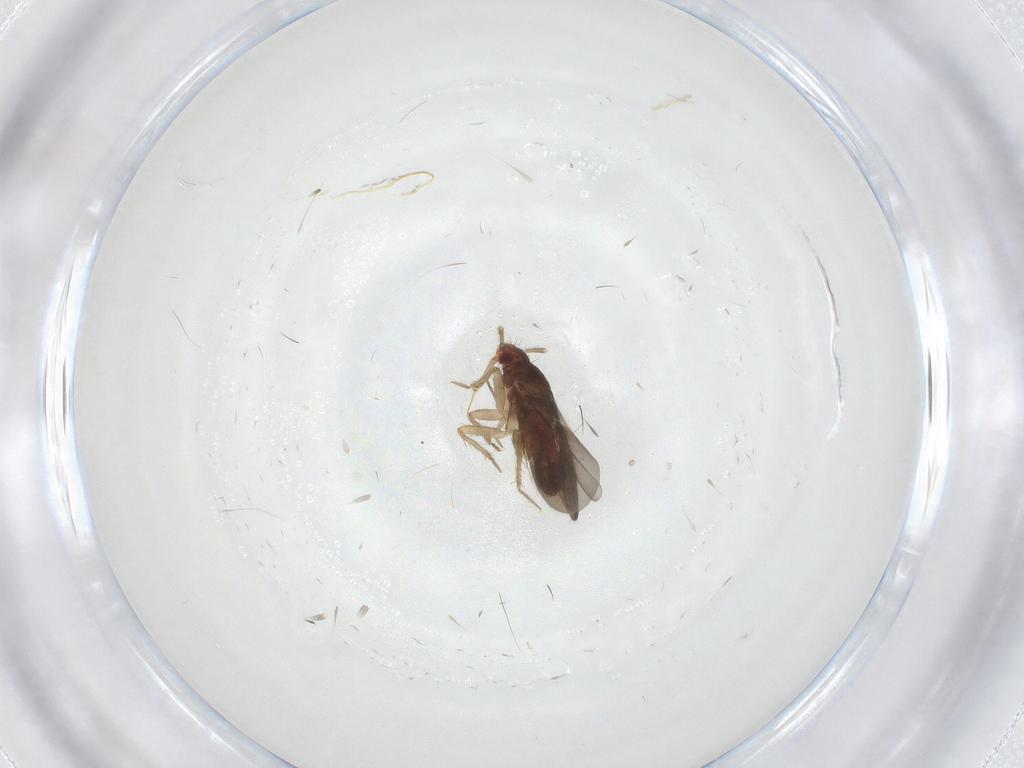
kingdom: Animalia
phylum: Arthropoda
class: Insecta
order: Hemiptera
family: Ceratocombidae
